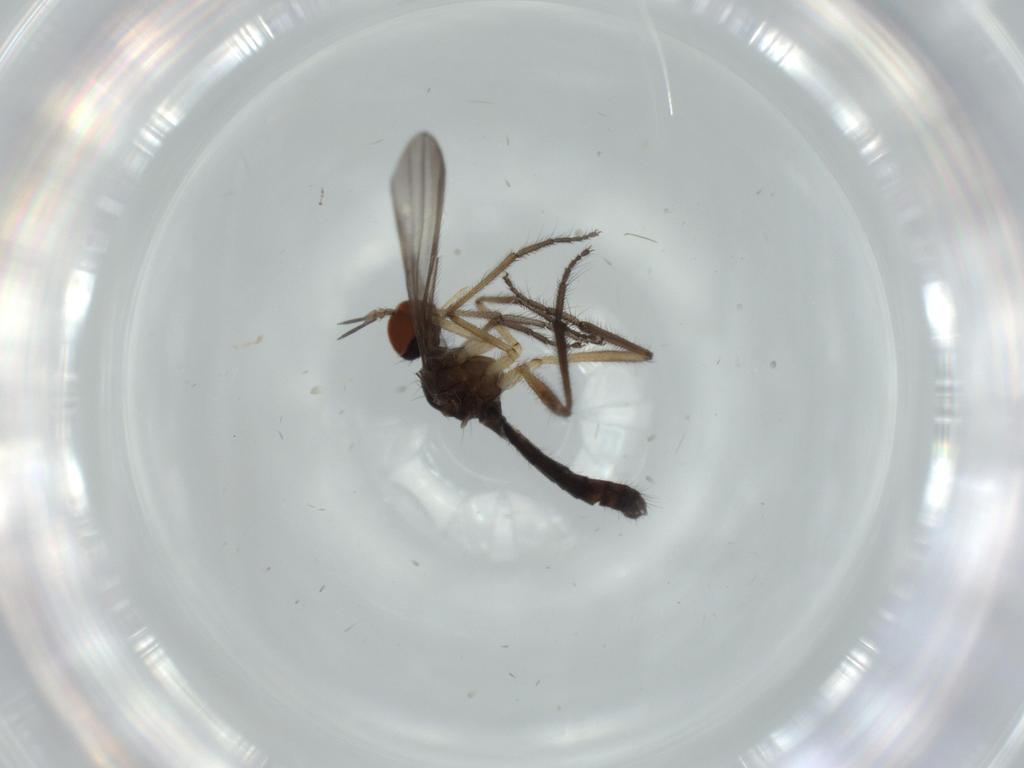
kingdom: Animalia
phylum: Arthropoda
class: Insecta
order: Diptera
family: Empididae
